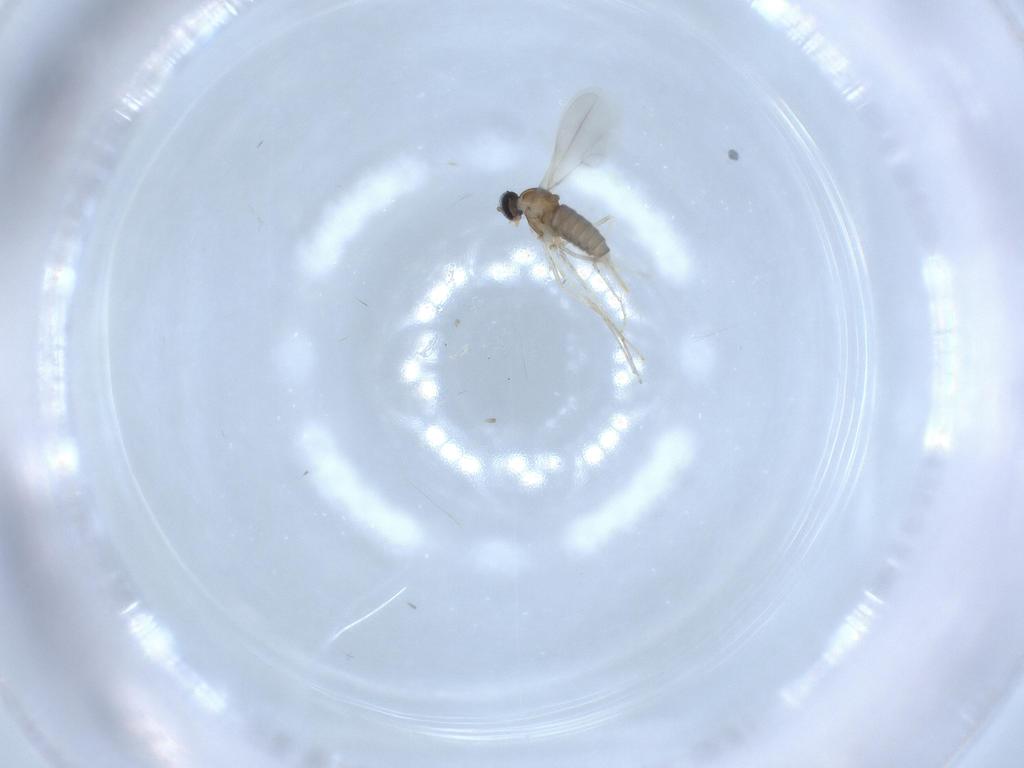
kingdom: Animalia
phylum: Arthropoda
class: Insecta
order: Diptera
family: Cecidomyiidae
